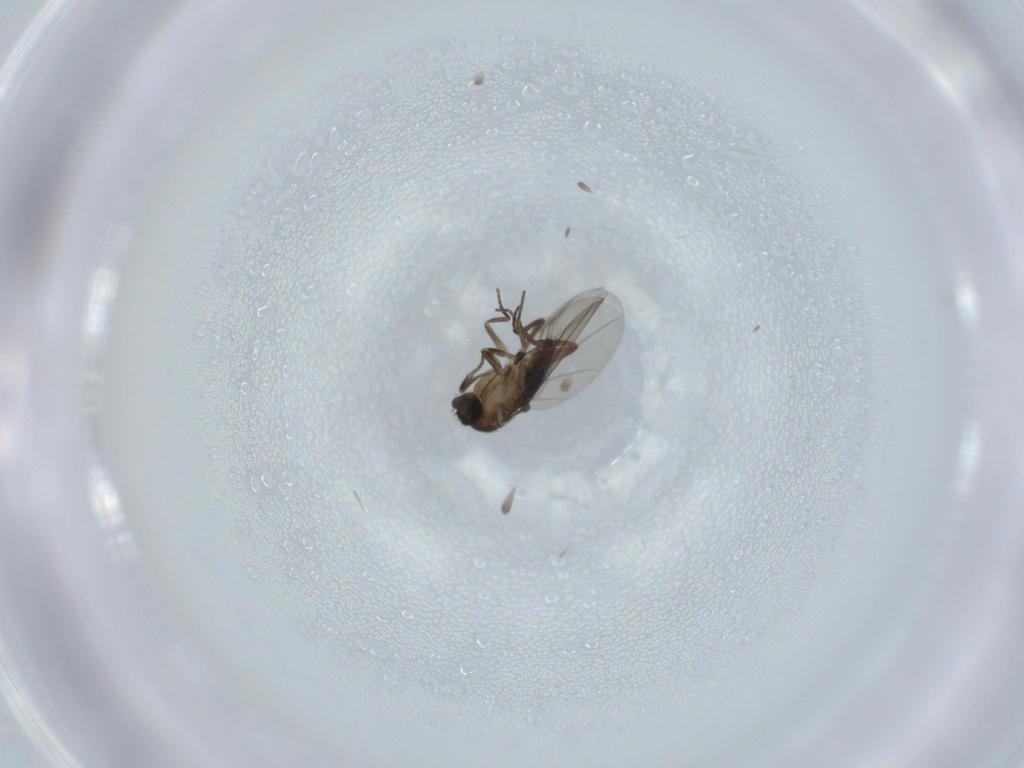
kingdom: Animalia
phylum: Arthropoda
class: Insecta
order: Diptera
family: Phoridae
